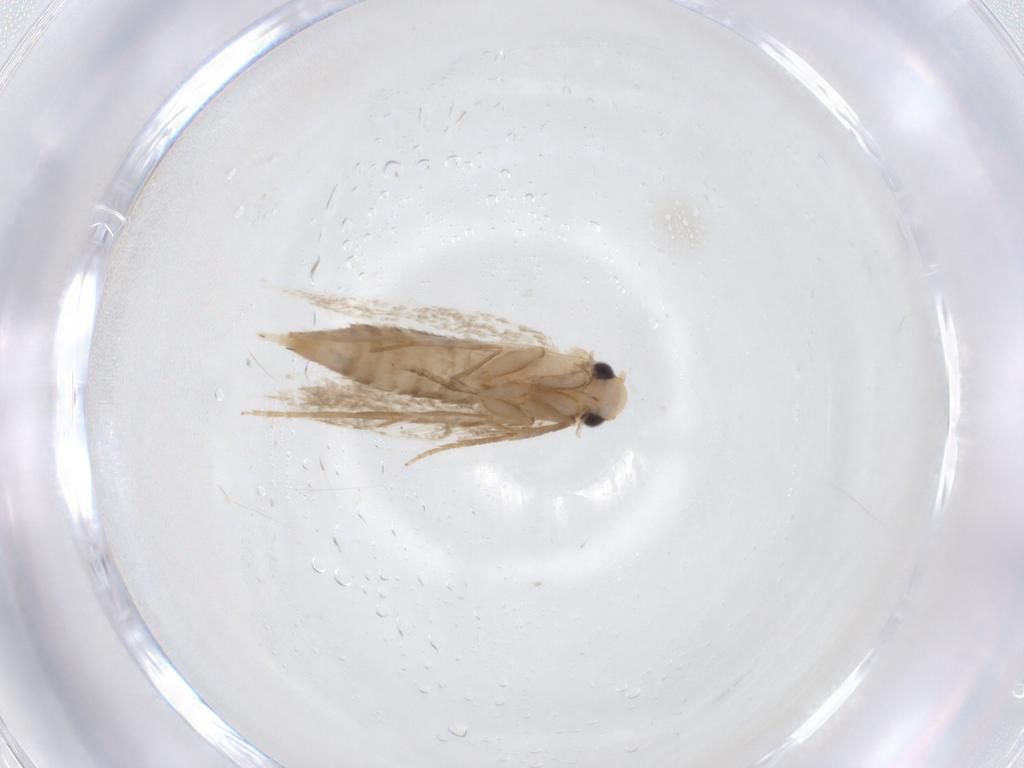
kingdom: Animalia
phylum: Arthropoda
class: Insecta
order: Lepidoptera
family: Tineidae
